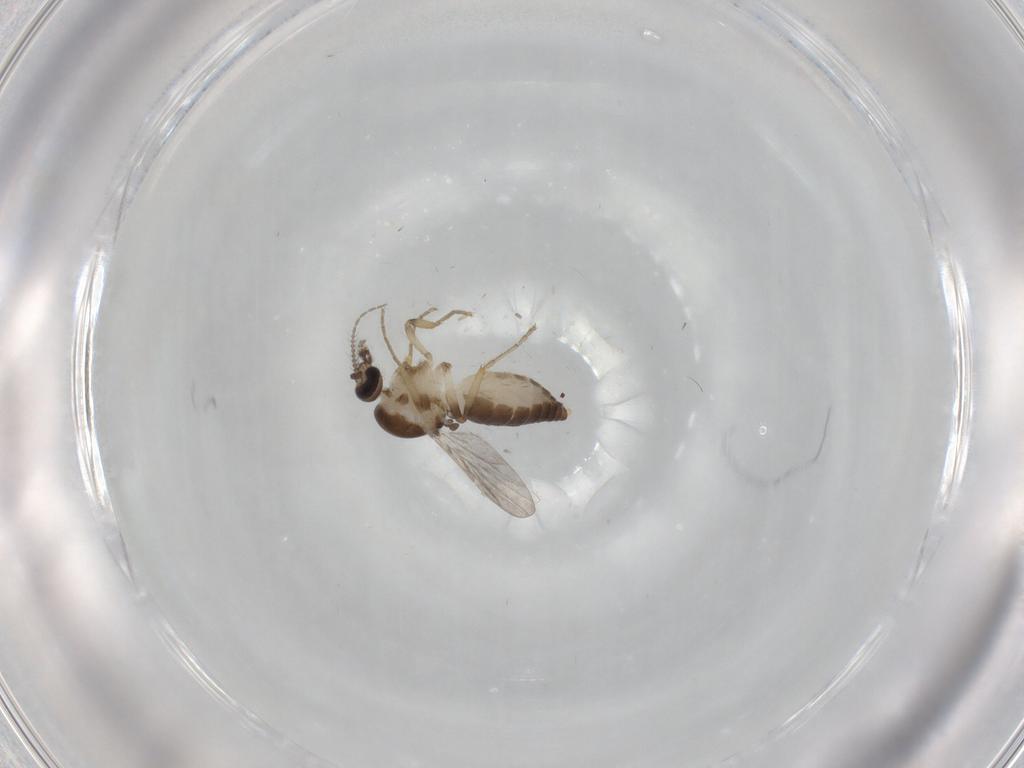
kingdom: Animalia
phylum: Arthropoda
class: Insecta
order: Diptera
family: Ceratopogonidae
